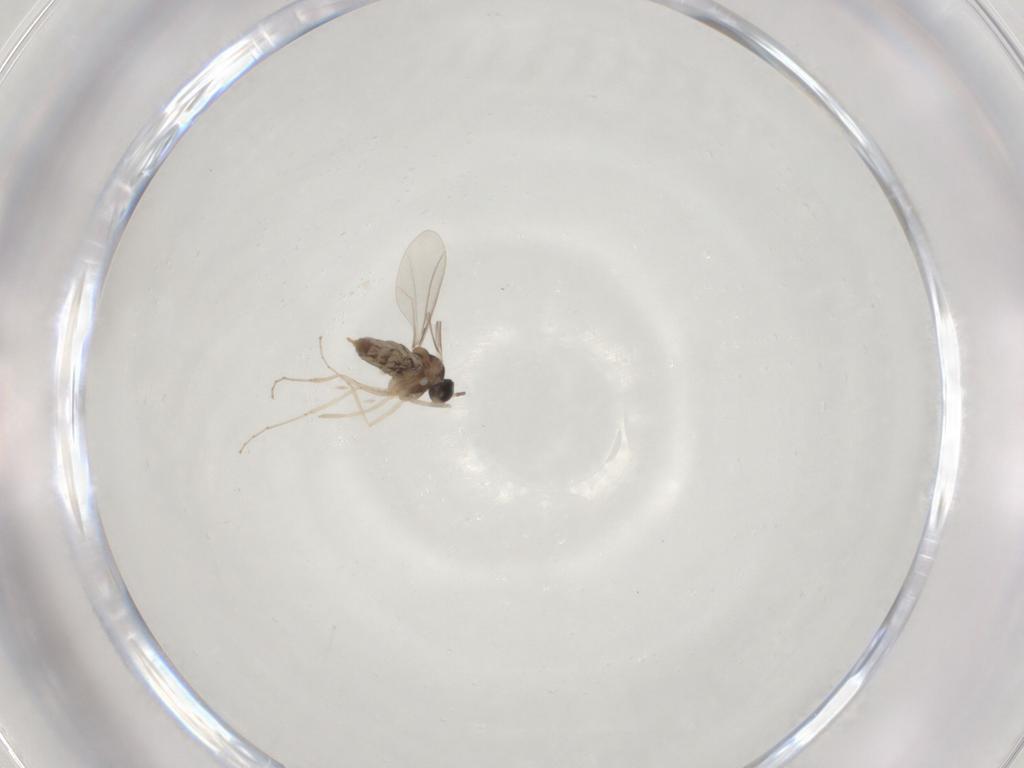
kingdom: Animalia
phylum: Arthropoda
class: Insecta
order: Diptera
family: Cecidomyiidae
